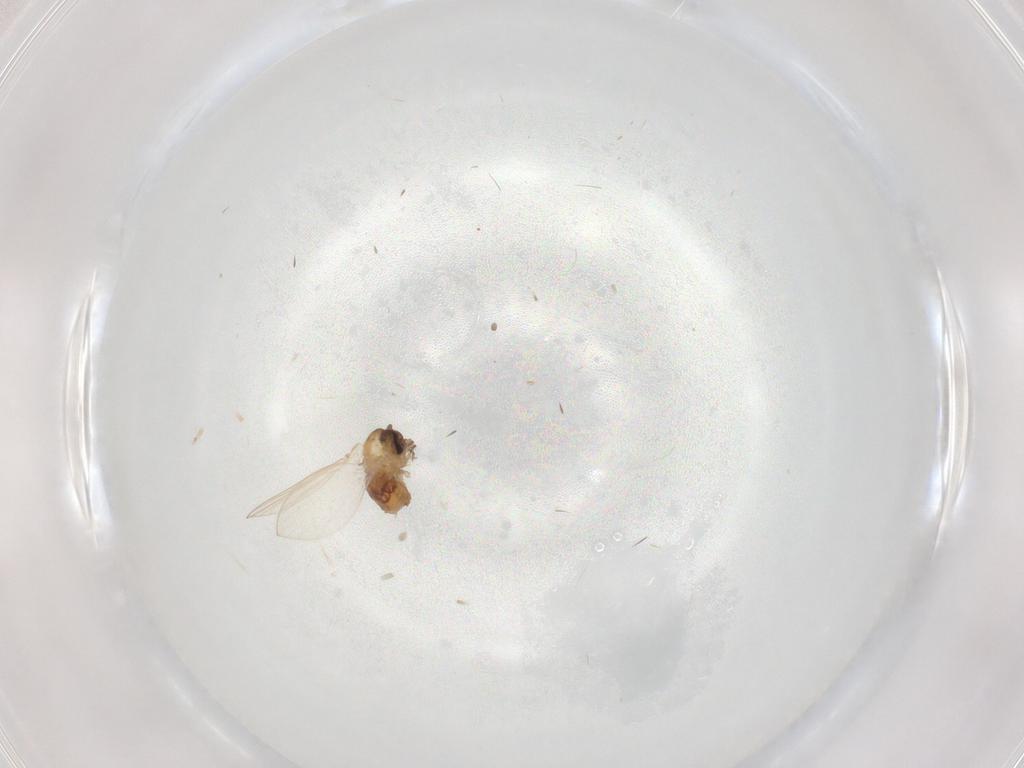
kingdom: Animalia
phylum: Arthropoda
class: Insecta
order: Diptera
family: Psychodidae
